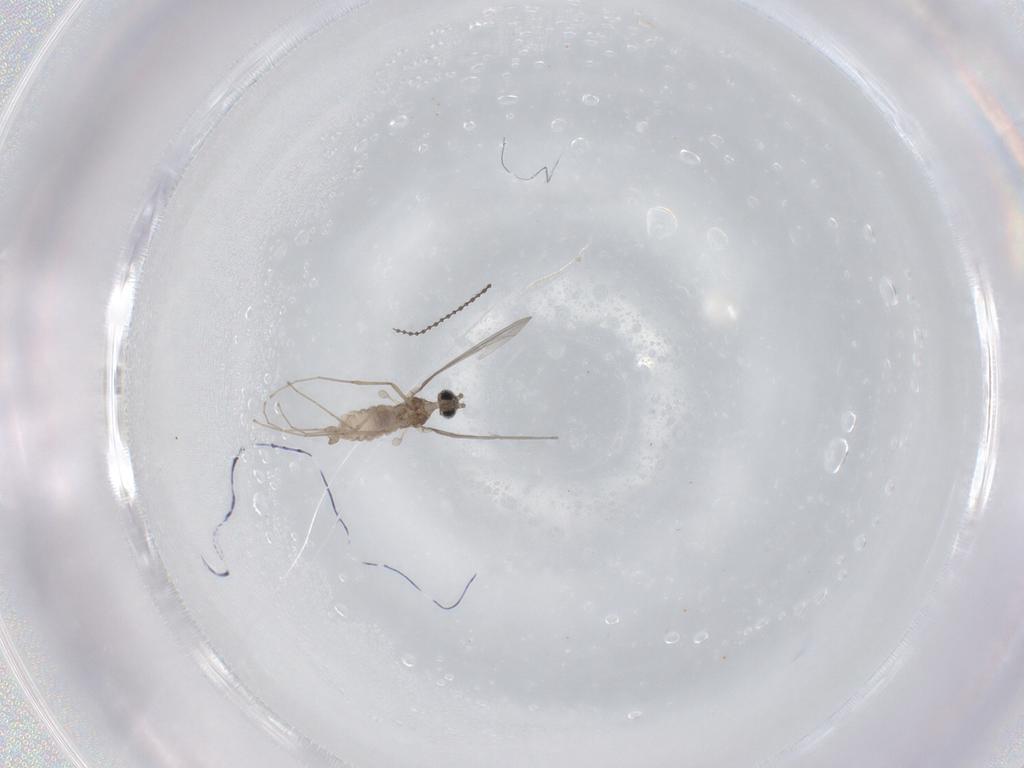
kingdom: Animalia
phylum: Arthropoda
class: Insecta
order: Diptera
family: Chironomidae
